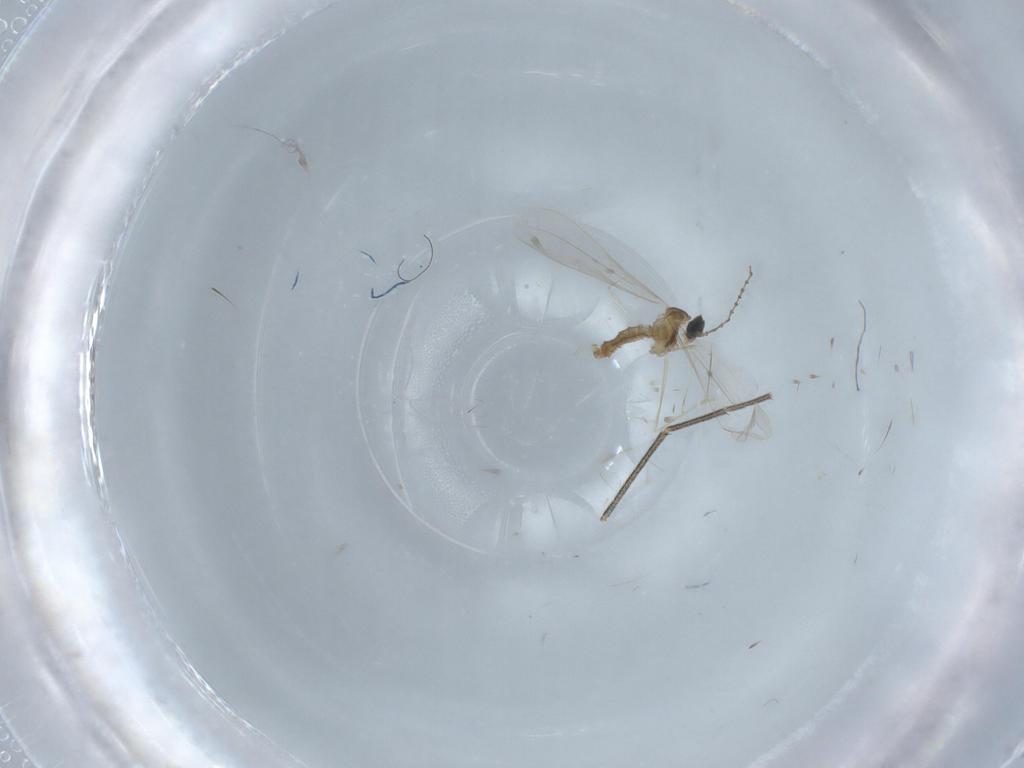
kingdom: Animalia
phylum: Arthropoda
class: Insecta
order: Diptera
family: Cecidomyiidae
